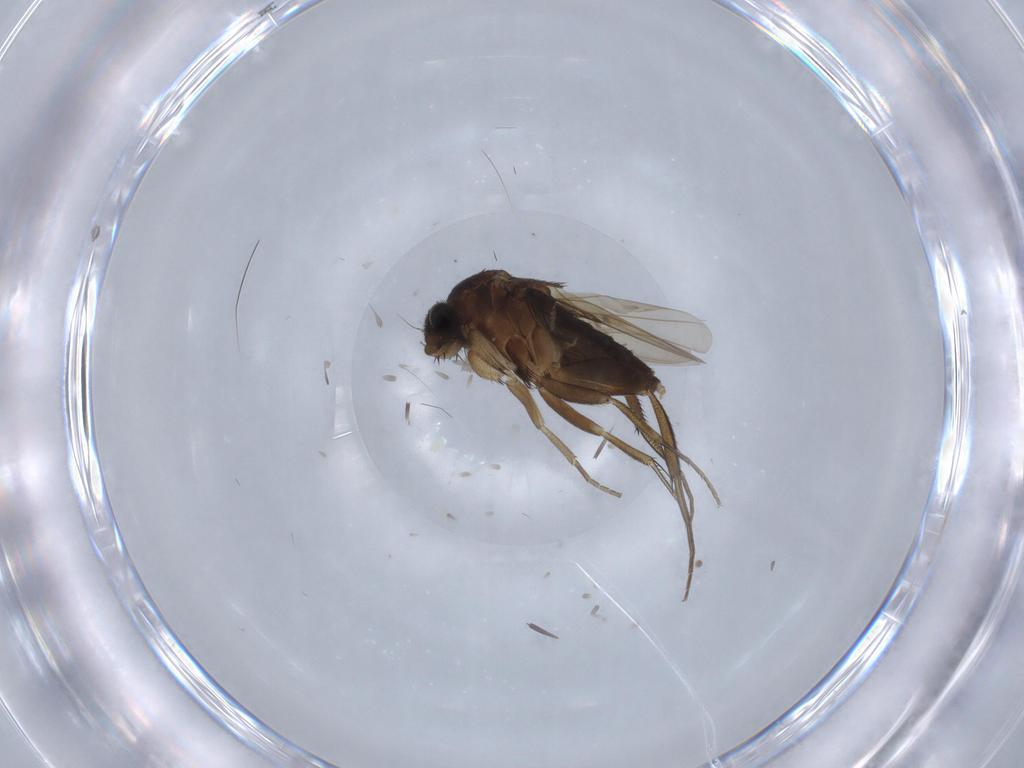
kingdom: Animalia
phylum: Arthropoda
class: Insecta
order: Diptera
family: Phoridae
